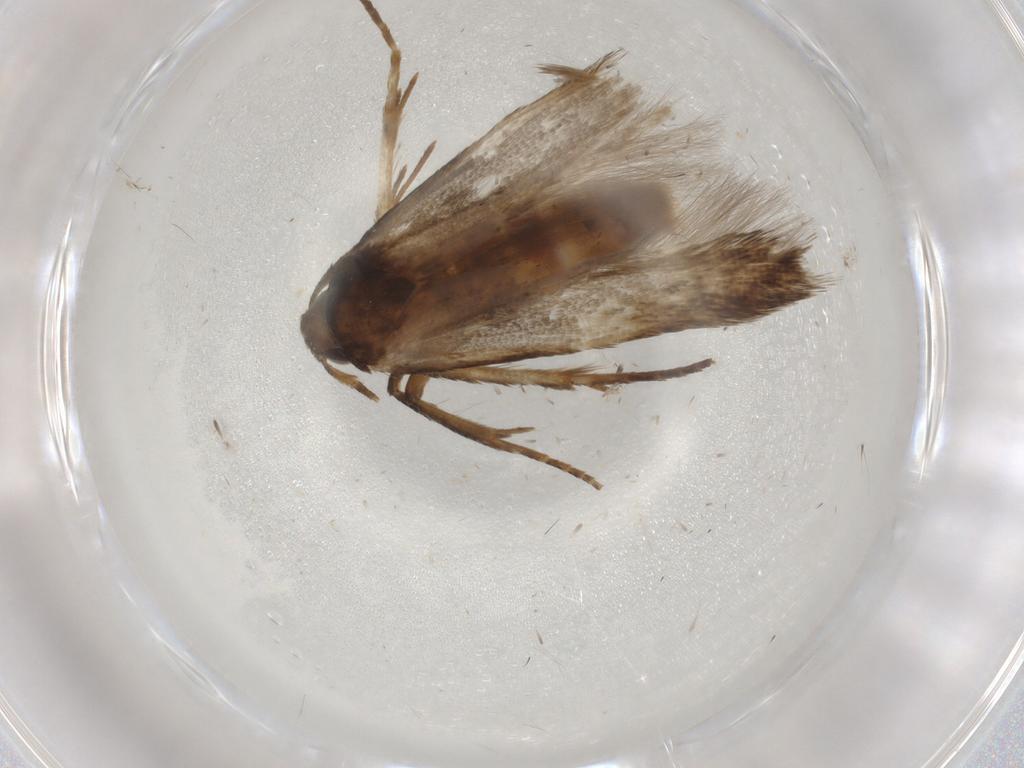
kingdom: Animalia
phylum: Arthropoda
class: Insecta
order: Lepidoptera
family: Cosmopterigidae
